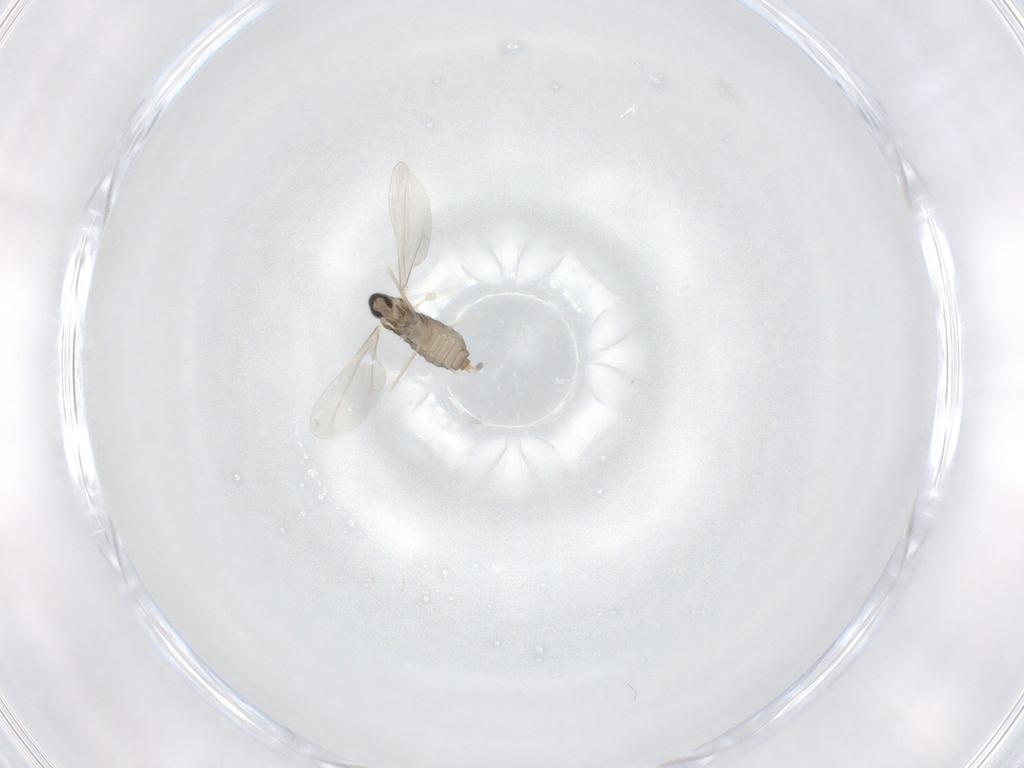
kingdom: Animalia
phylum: Arthropoda
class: Insecta
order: Diptera
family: Cecidomyiidae
